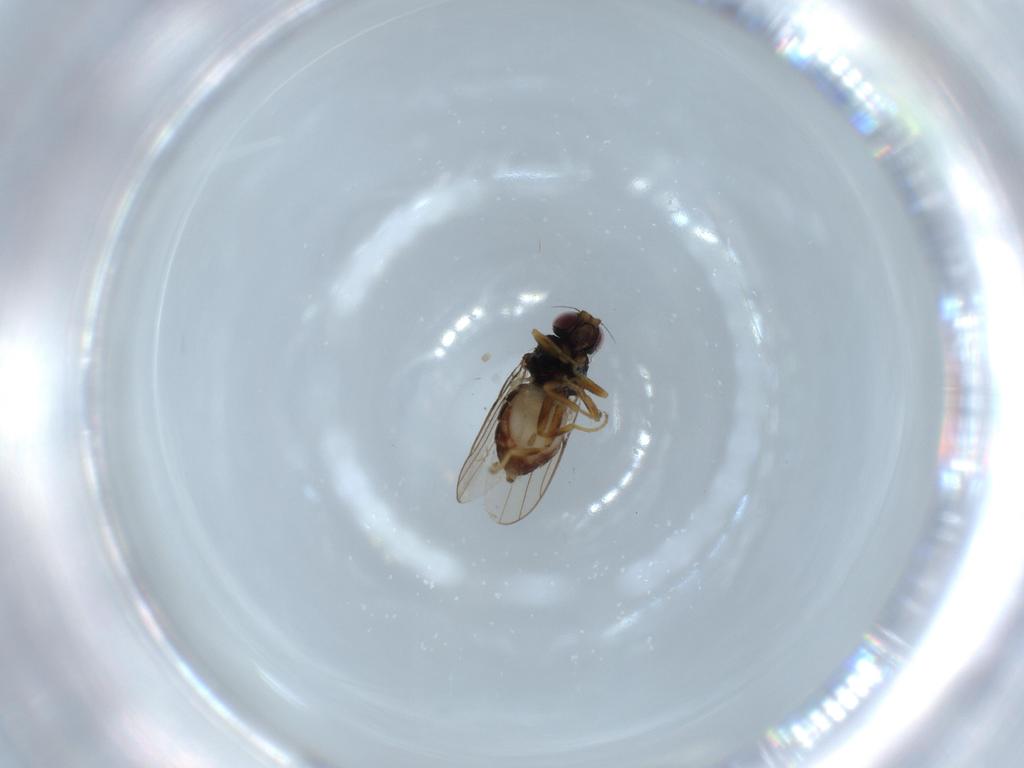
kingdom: Animalia
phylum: Arthropoda
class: Insecta
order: Diptera
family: Chloropidae
